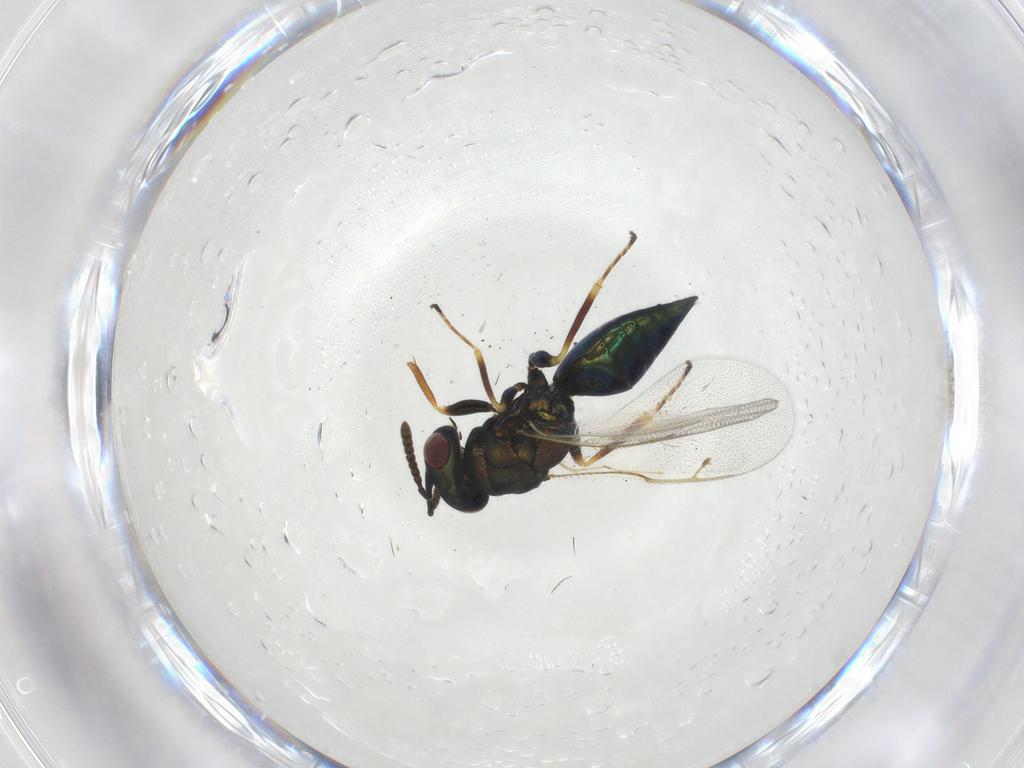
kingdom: Animalia
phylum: Arthropoda
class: Insecta
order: Hymenoptera
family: Pteromalidae
